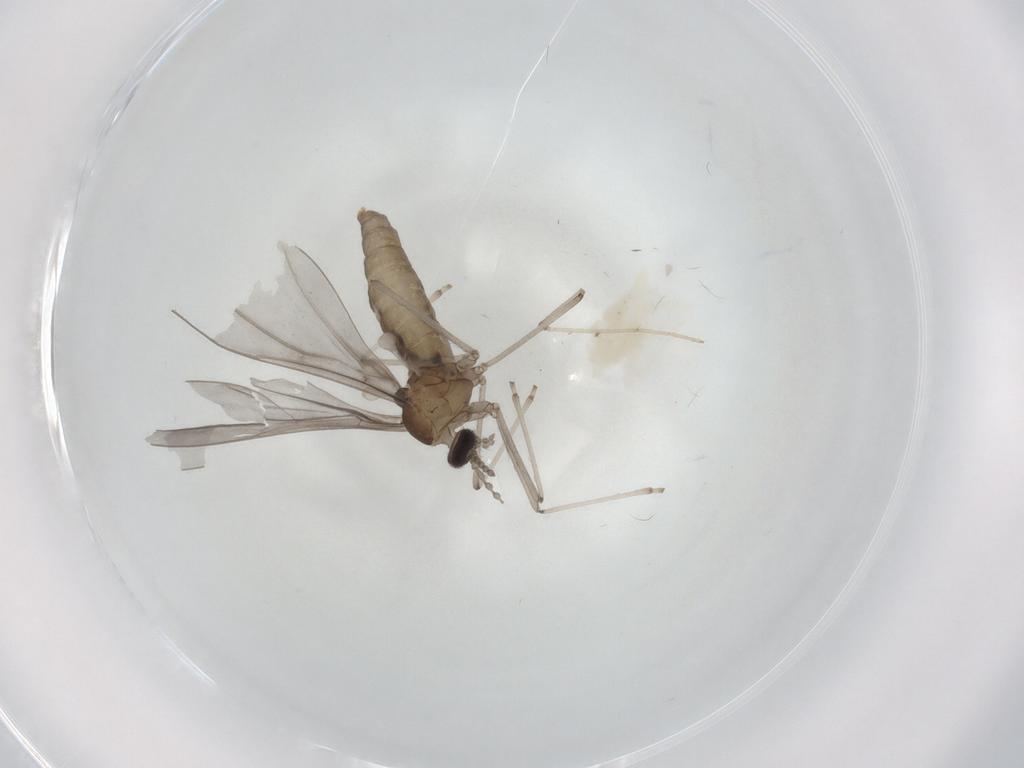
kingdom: Animalia
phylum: Arthropoda
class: Insecta
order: Diptera
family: Cecidomyiidae
